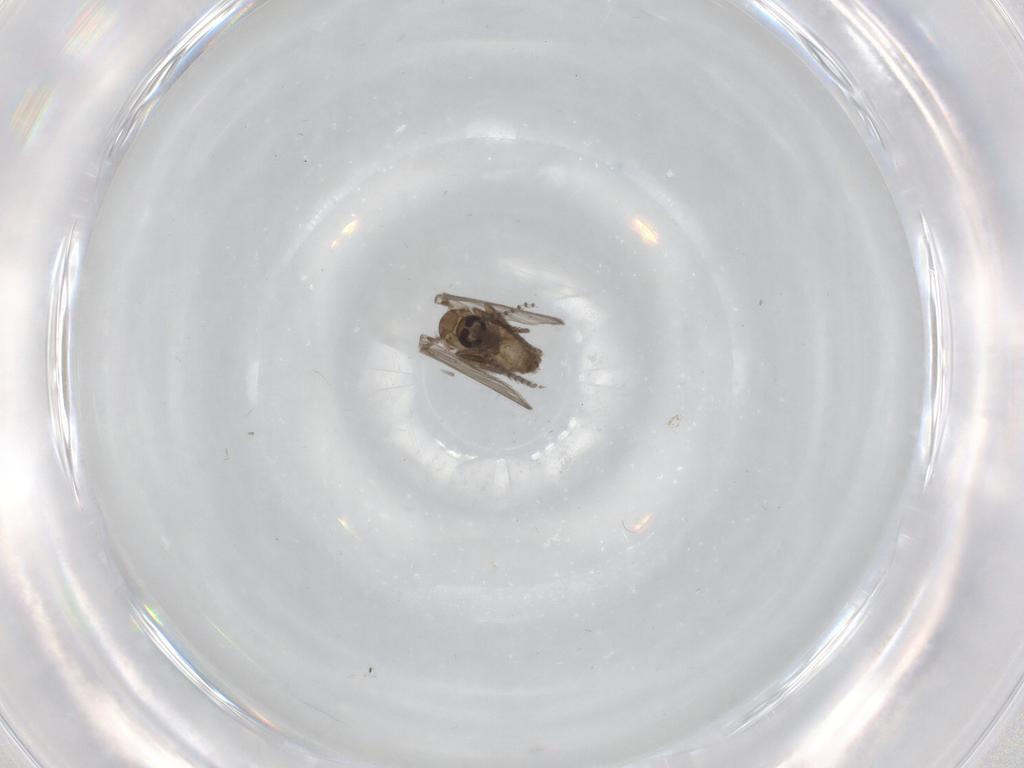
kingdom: Animalia
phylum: Arthropoda
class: Insecta
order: Diptera
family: Psychodidae
